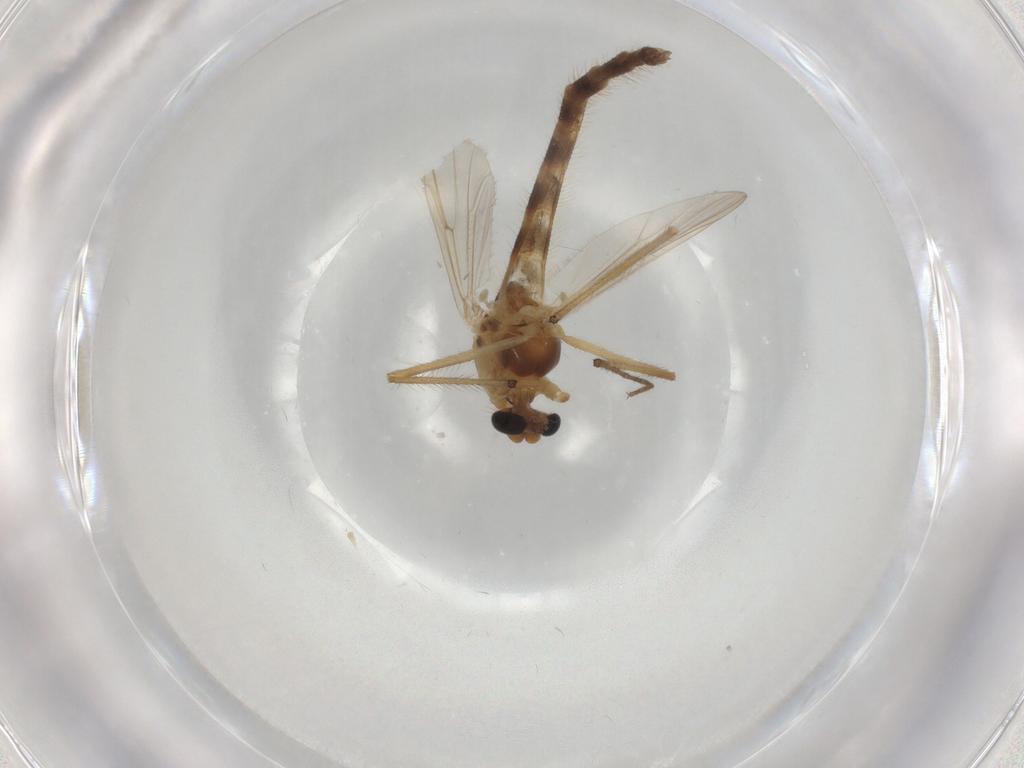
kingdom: Animalia
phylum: Arthropoda
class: Insecta
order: Diptera
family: Chironomidae
